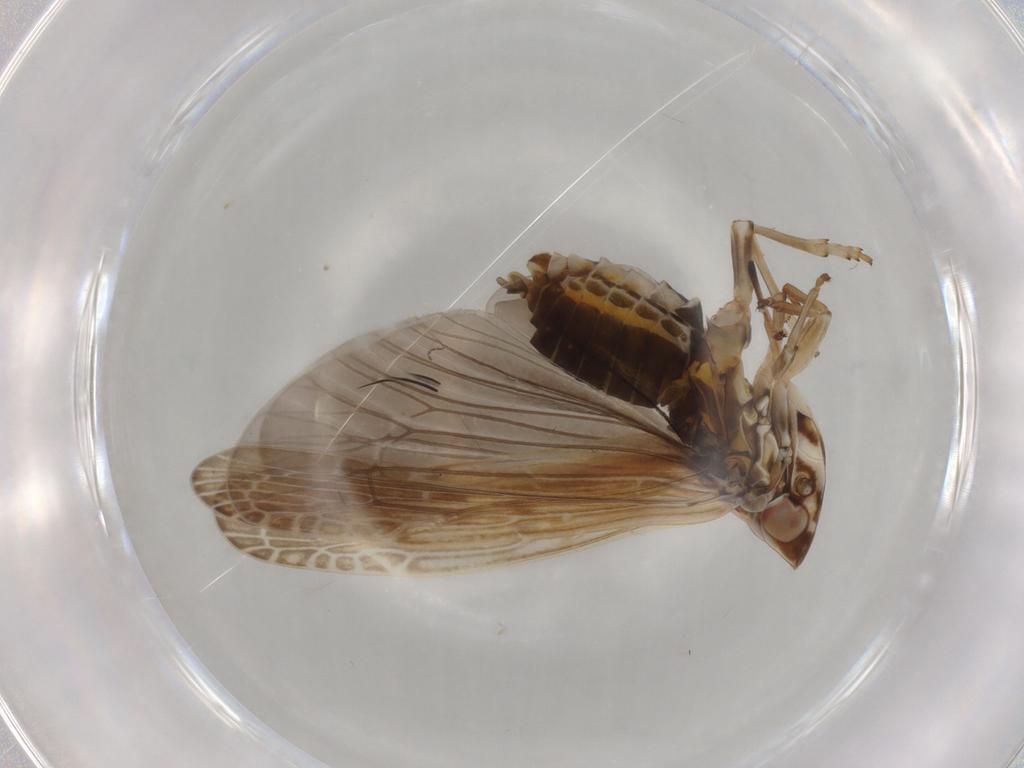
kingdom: Animalia
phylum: Arthropoda
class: Insecta
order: Hemiptera
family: Achilidae
